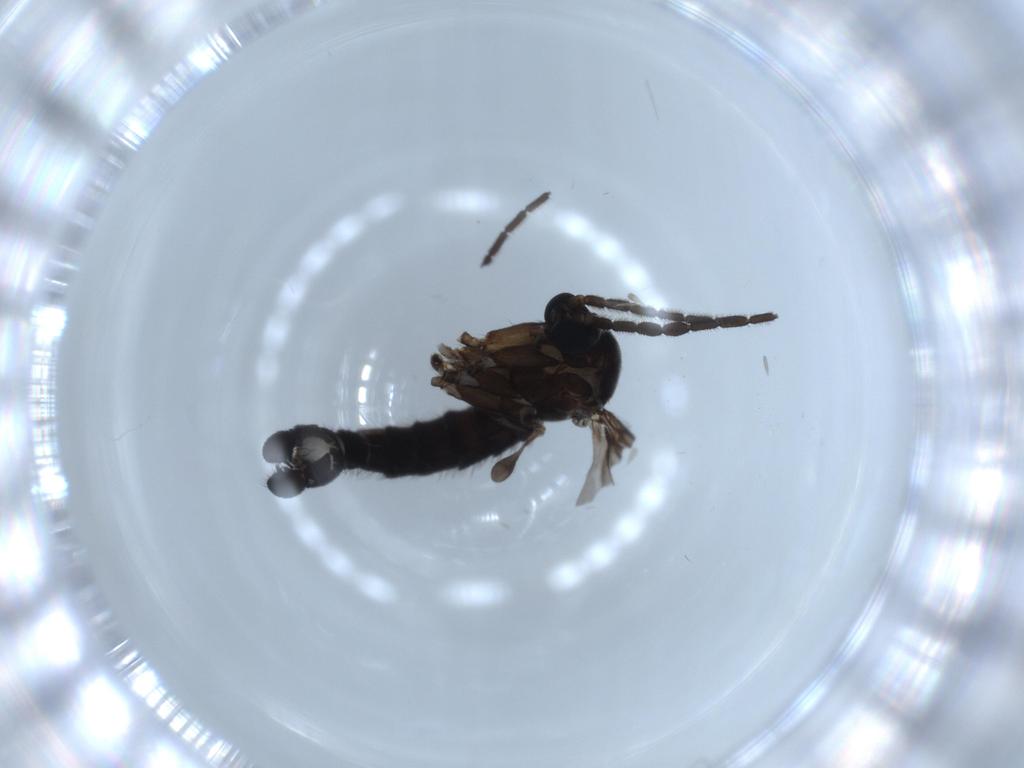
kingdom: Animalia
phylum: Arthropoda
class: Insecta
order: Diptera
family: Sciaridae
